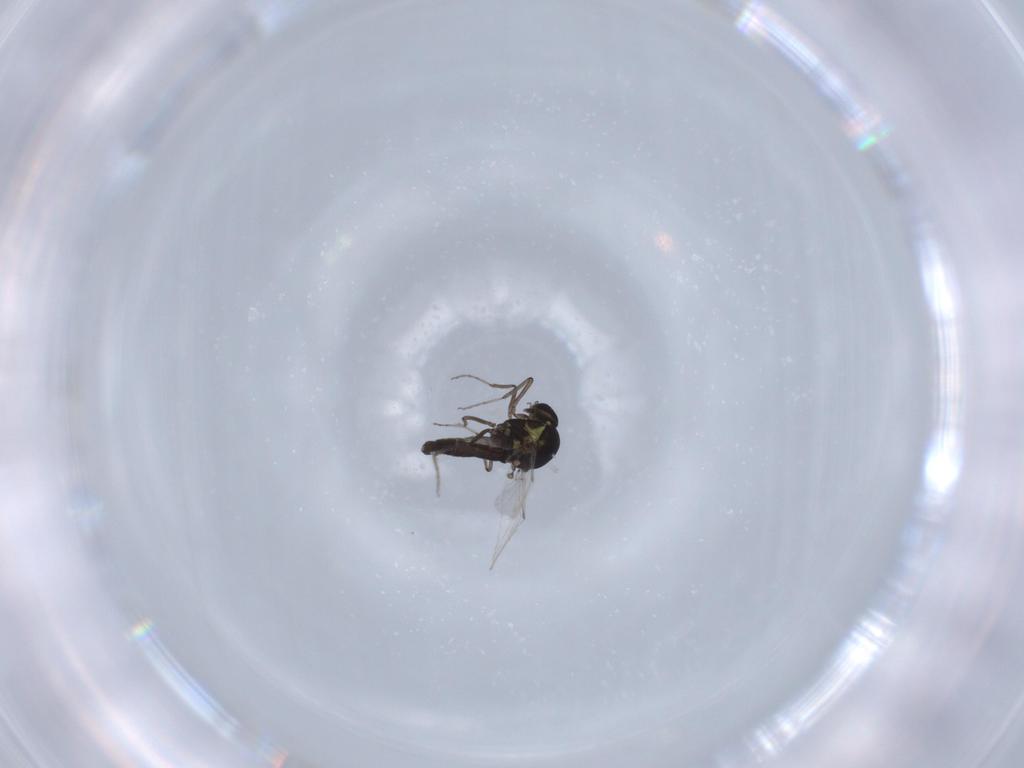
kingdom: Animalia
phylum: Arthropoda
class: Insecta
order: Diptera
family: Ceratopogonidae
